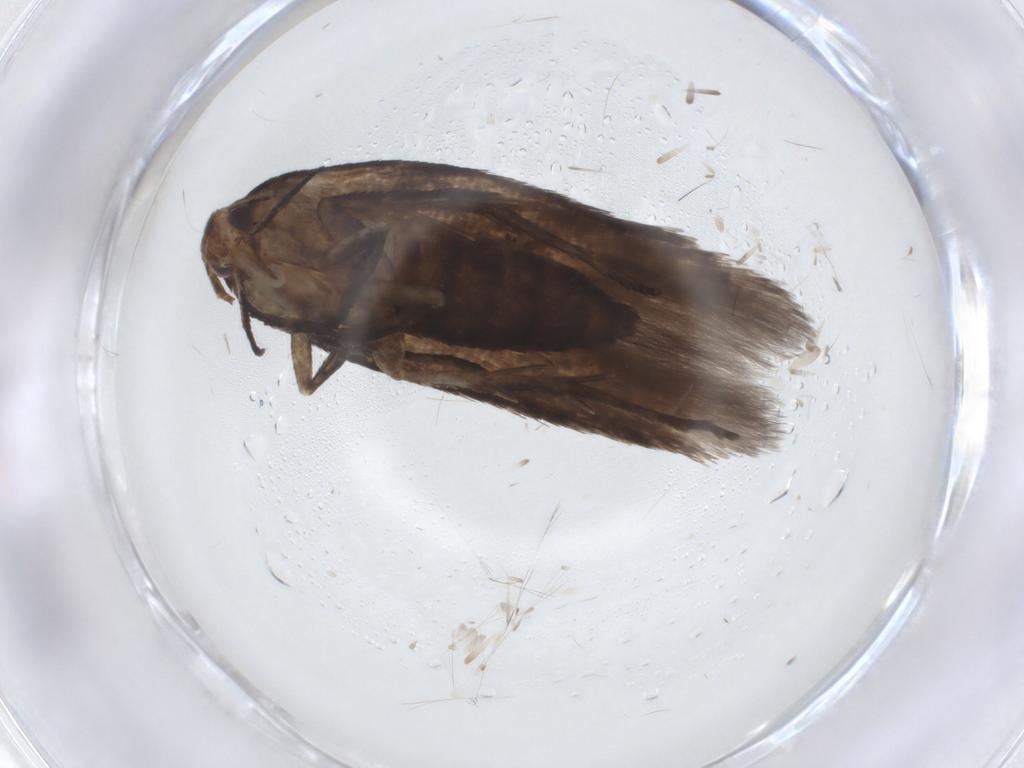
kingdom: Animalia
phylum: Arthropoda
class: Insecta
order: Lepidoptera
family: Cosmopterigidae
